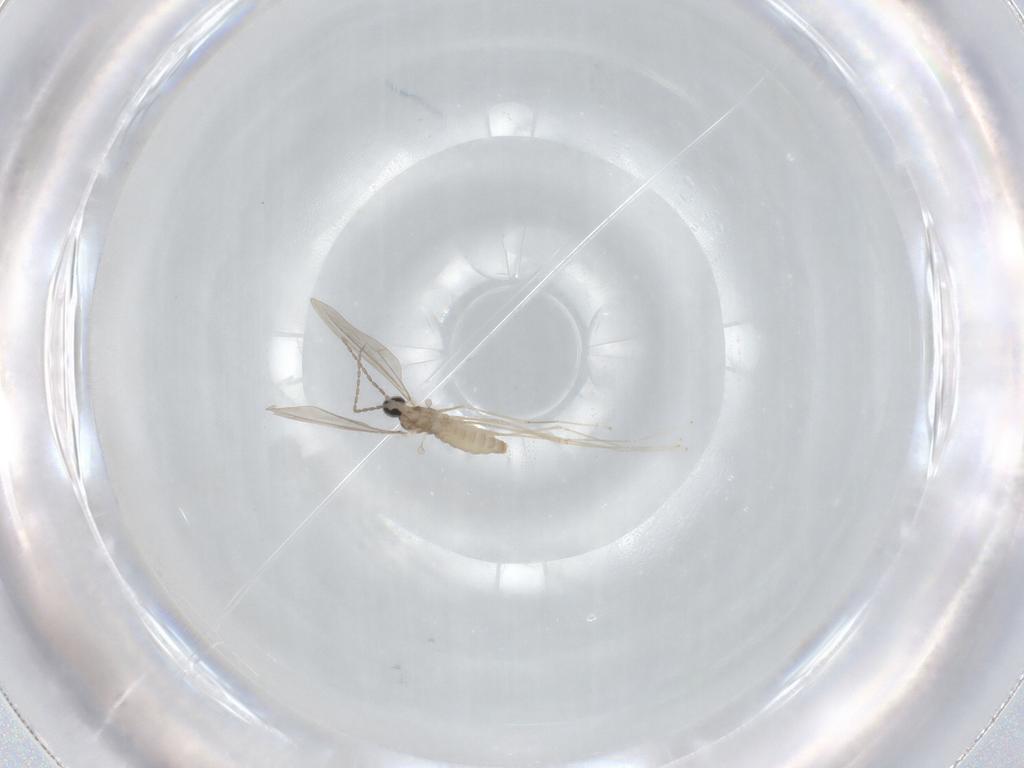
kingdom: Animalia
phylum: Arthropoda
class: Insecta
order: Diptera
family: Cecidomyiidae
